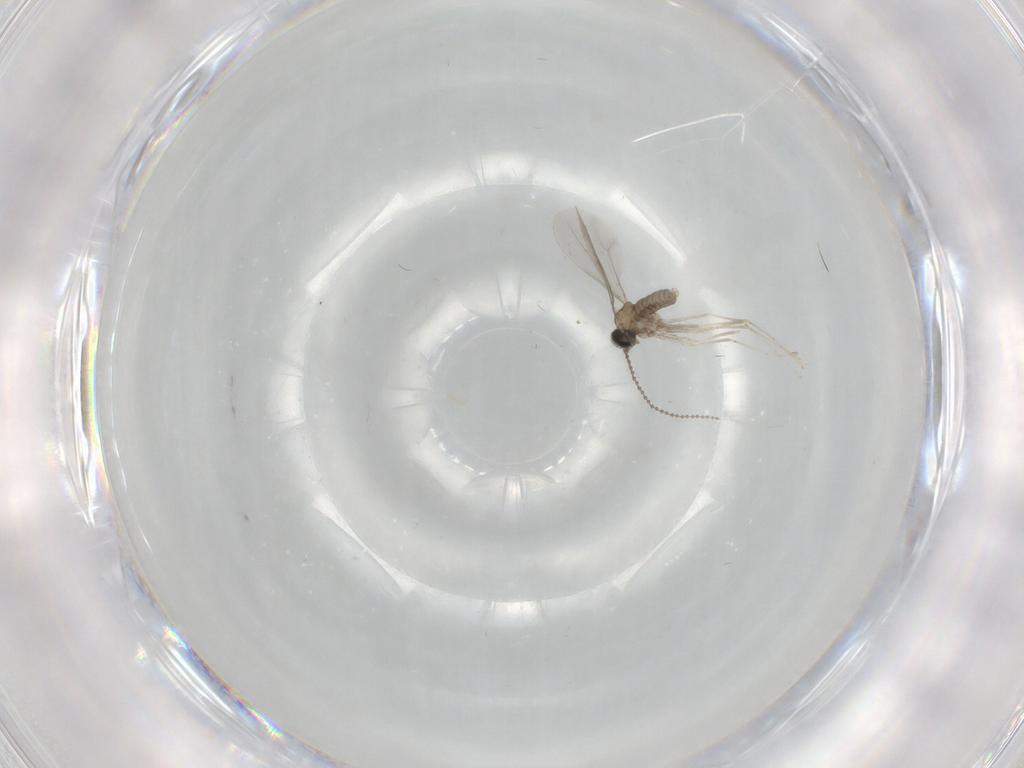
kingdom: Animalia
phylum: Arthropoda
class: Insecta
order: Diptera
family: Cecidomyiidae
